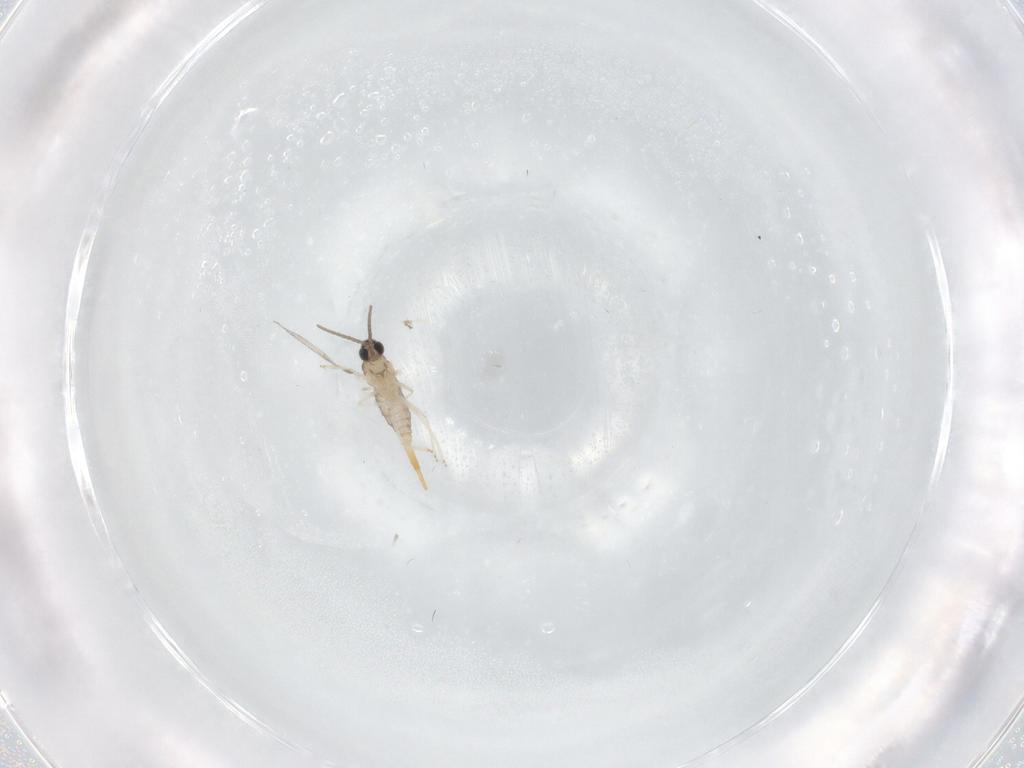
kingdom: Animalia
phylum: Arthropoda
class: Insecta
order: Diptera
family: Cecidomyiidae
